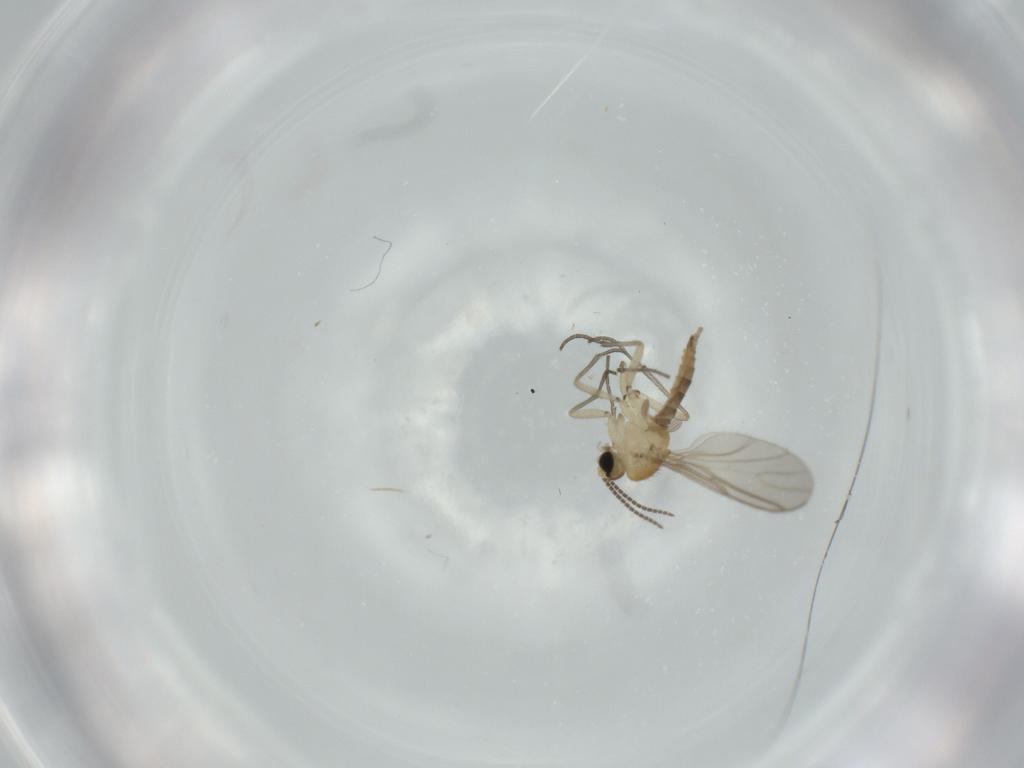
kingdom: Animalia
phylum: Arthropoda
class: Insecta
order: Diptera
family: Sciaridae
